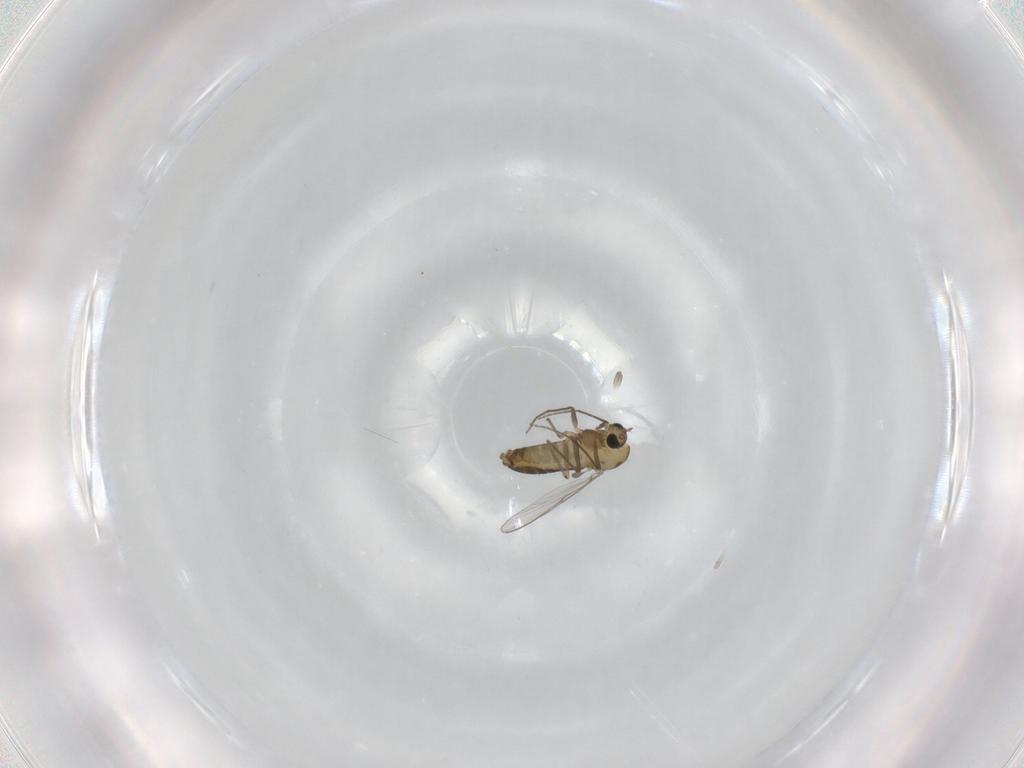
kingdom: Animalia
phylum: Arthropoda
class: Insecta
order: Diptera
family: Chironomidae
